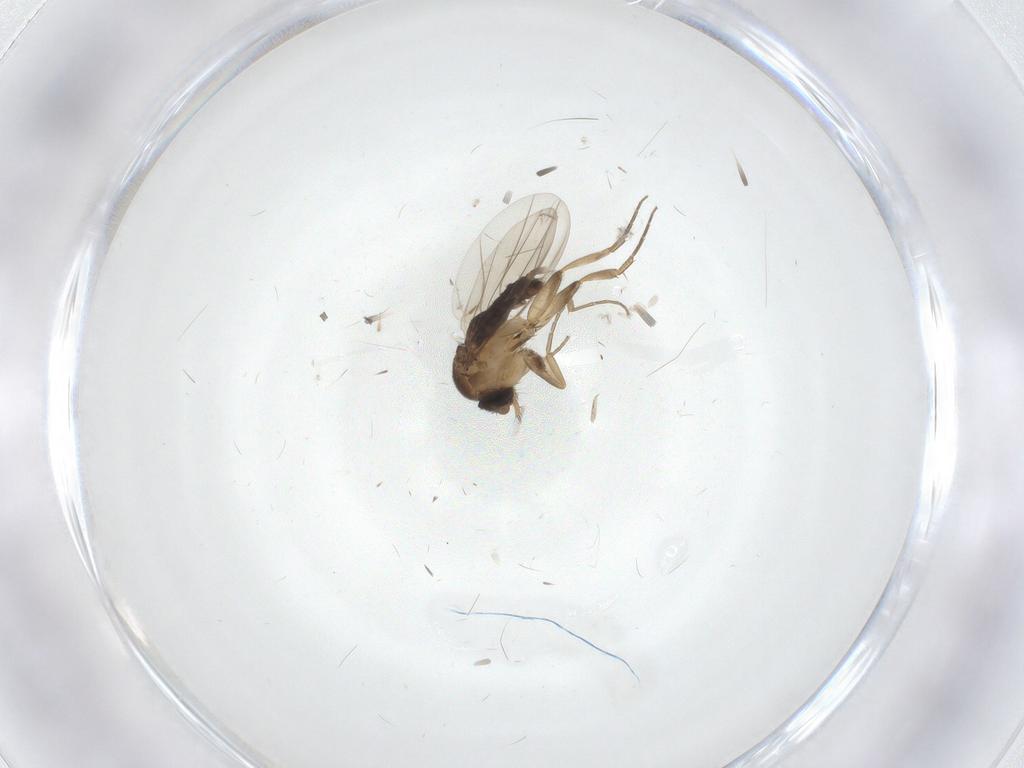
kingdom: Animalia
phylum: Arthropoda
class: Insecta
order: Diptera
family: Phoridae
